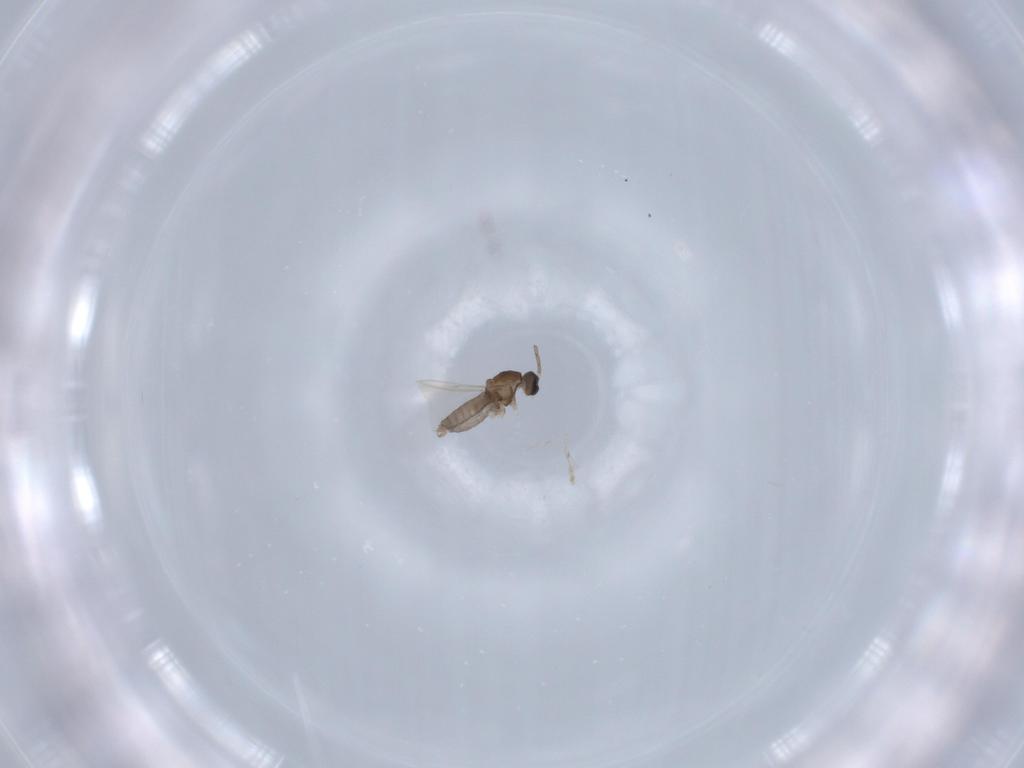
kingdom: Animalia
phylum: Arthropoda
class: Insecta
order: Diptera
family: Cecidomyiidae
